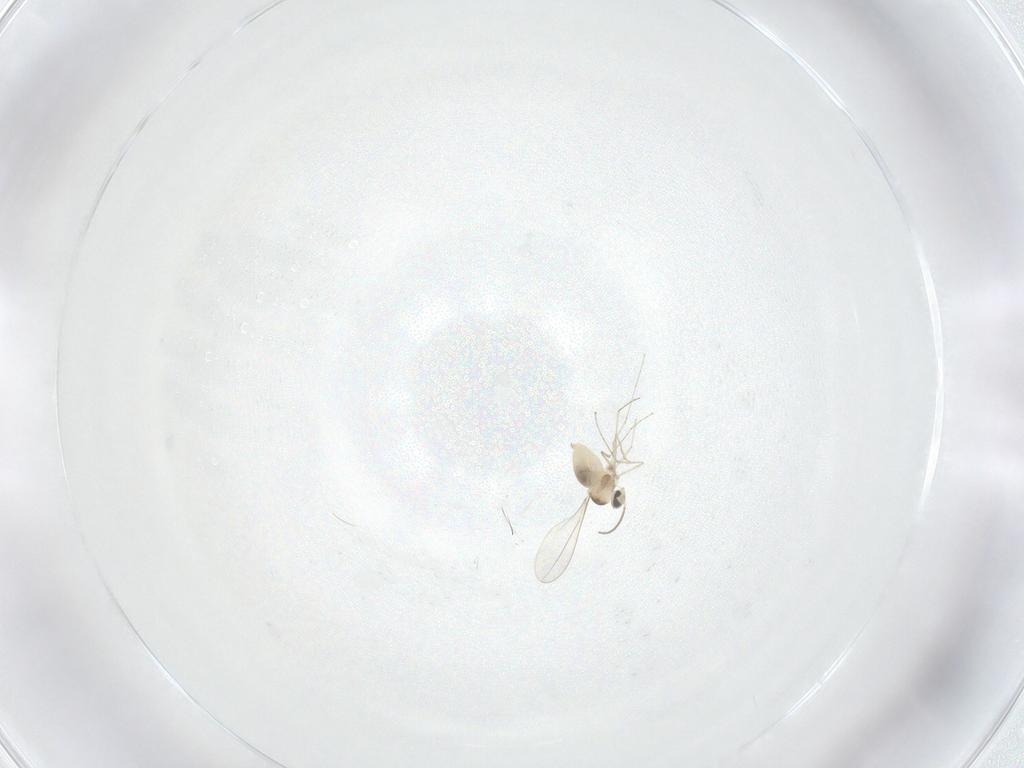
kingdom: Animalia
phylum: Arthropoda
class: Insecta
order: Diptera
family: Cecidomyiidae
